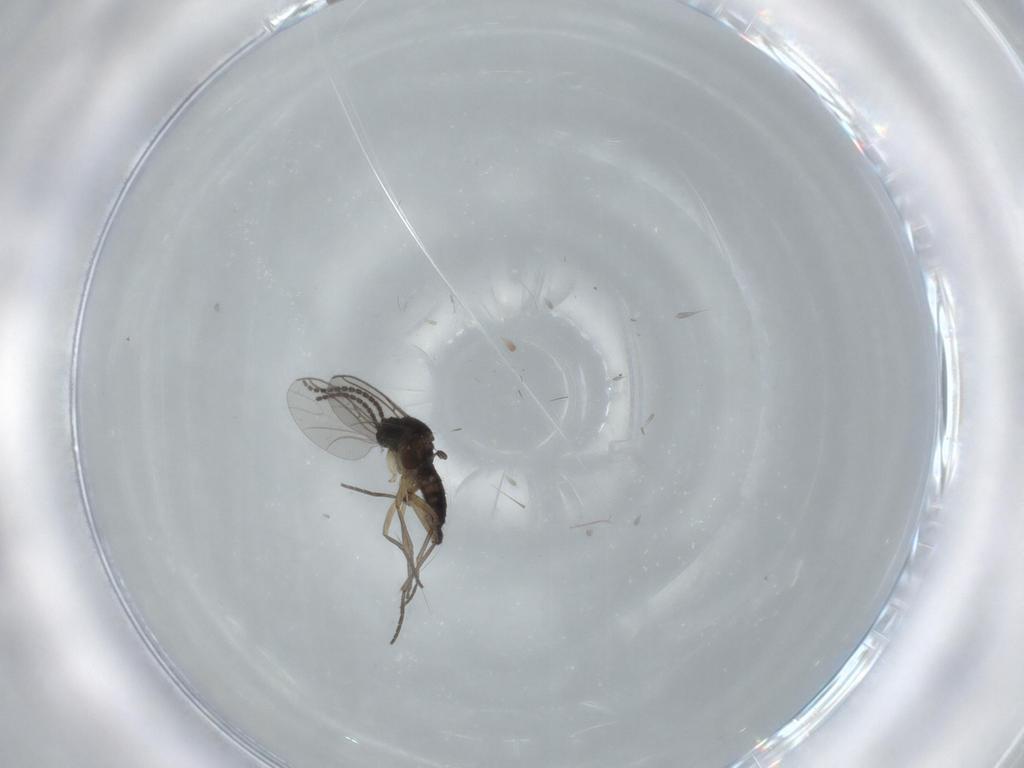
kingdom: Animalia
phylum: Arthropoda
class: Insecta
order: Diptera
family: Sciaridae
